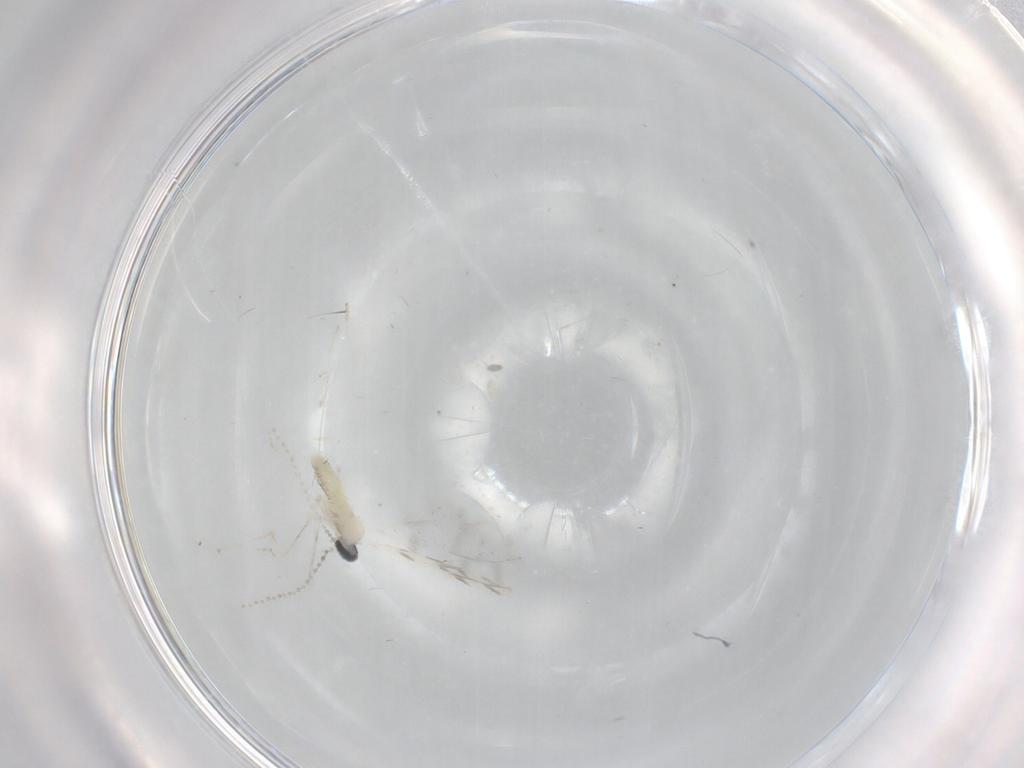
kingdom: Animalia
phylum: Arthropoda
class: Insecta
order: Diptera
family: Cecidomyiidae
